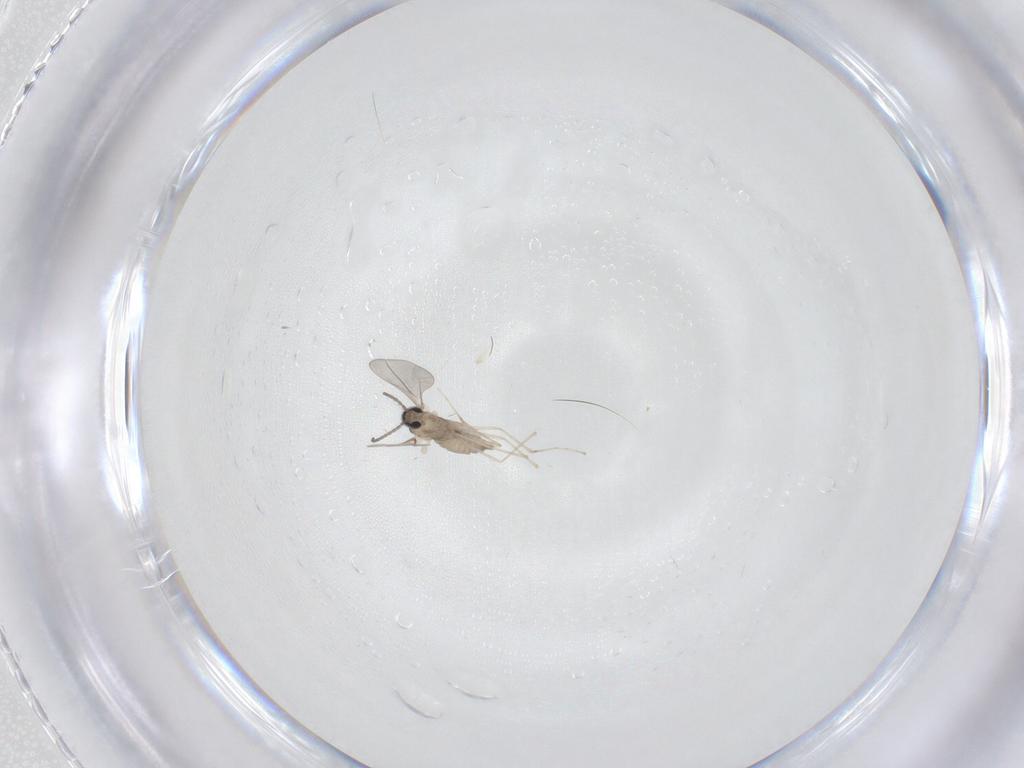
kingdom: Animalia
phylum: Arthropoda
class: Insecta
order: Diptera
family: Cecidomyiidae
